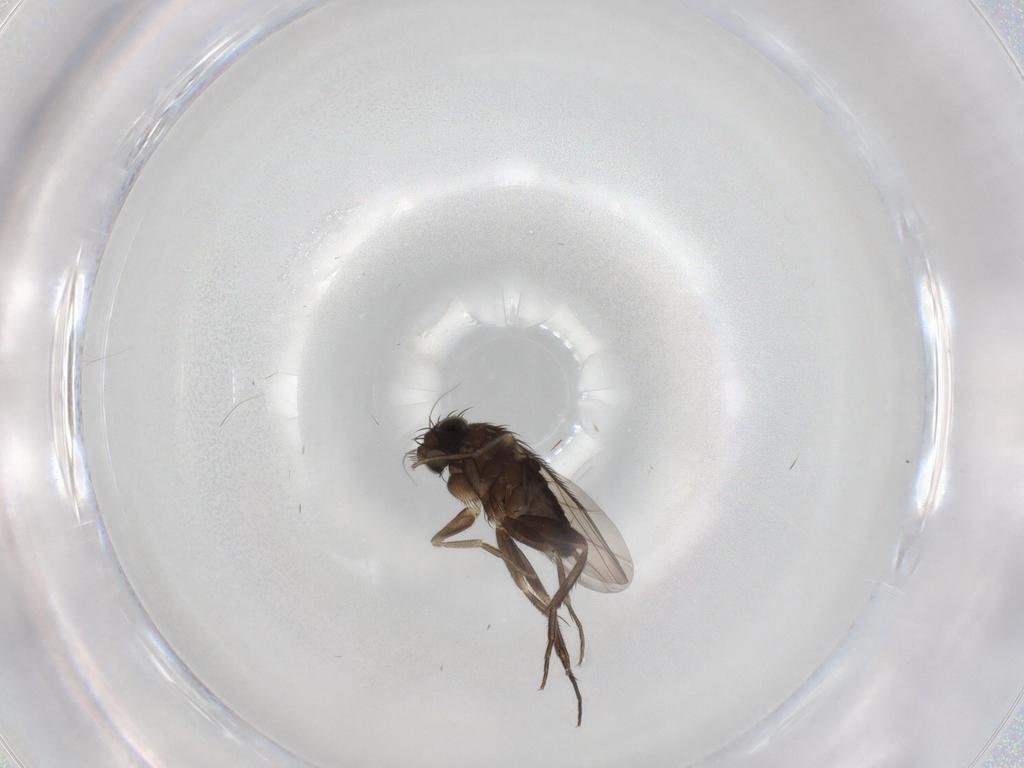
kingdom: Animalia
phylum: Arthropoda
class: Insecta
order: Diptera
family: Phoridae
